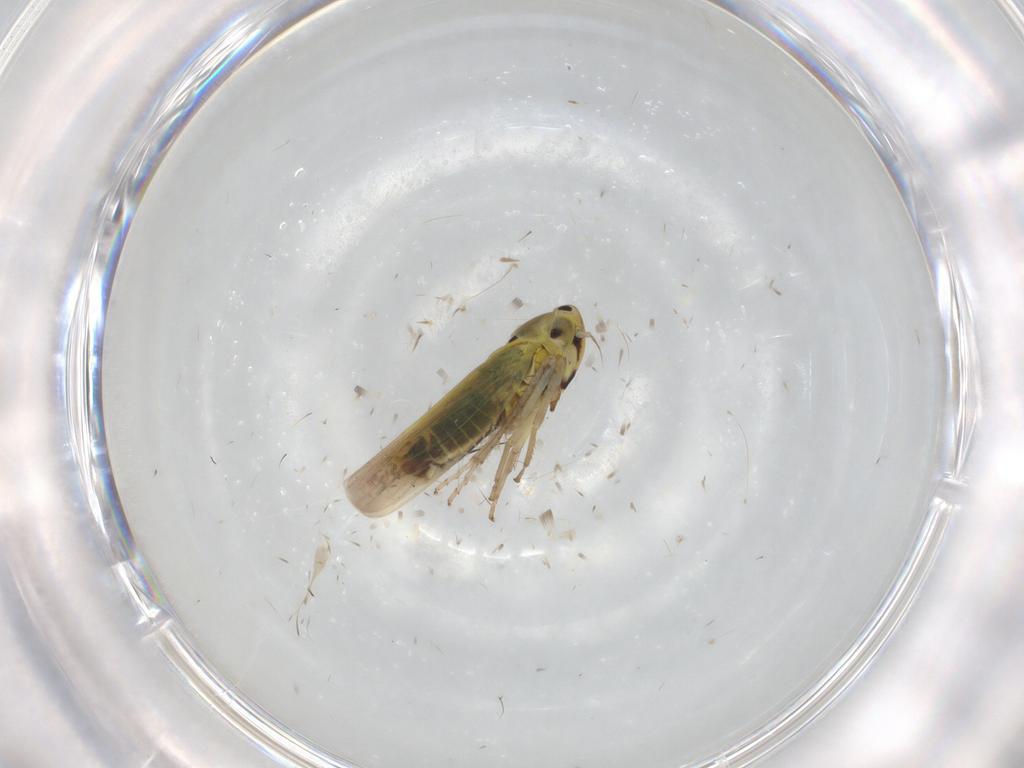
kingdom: Animalia
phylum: Arthropoda
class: Insecta
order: Hemiptera
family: Cicadellidae
